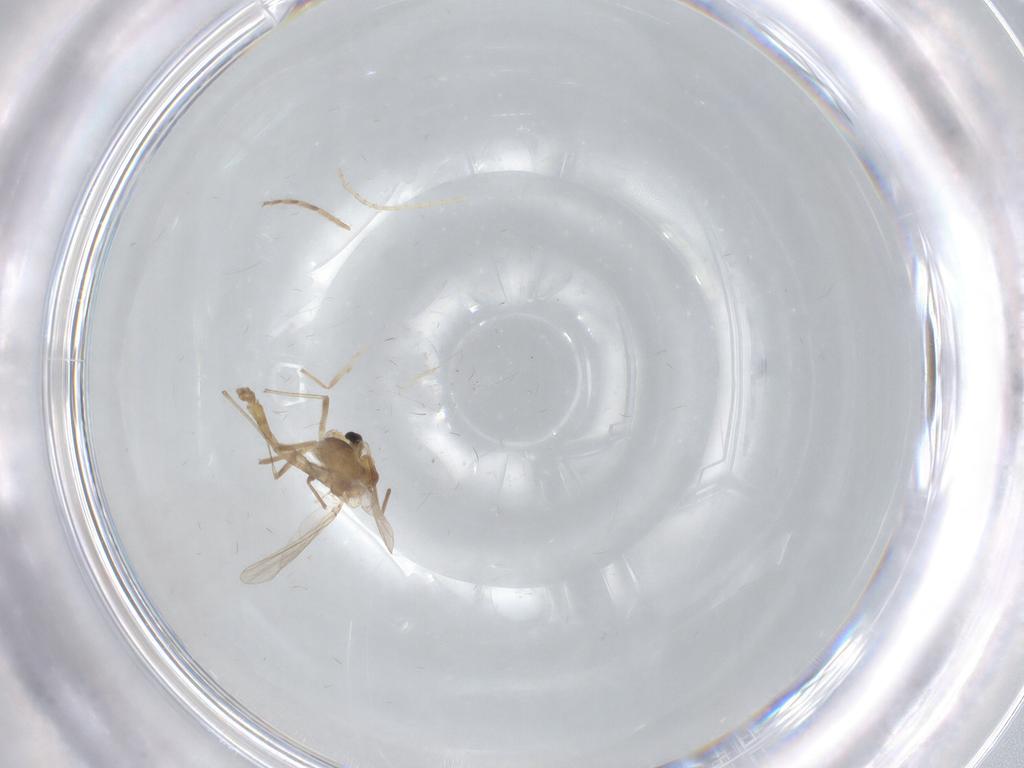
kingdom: Animalia
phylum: Arthropoda
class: Insecta
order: Diptera
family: Chironomidae
